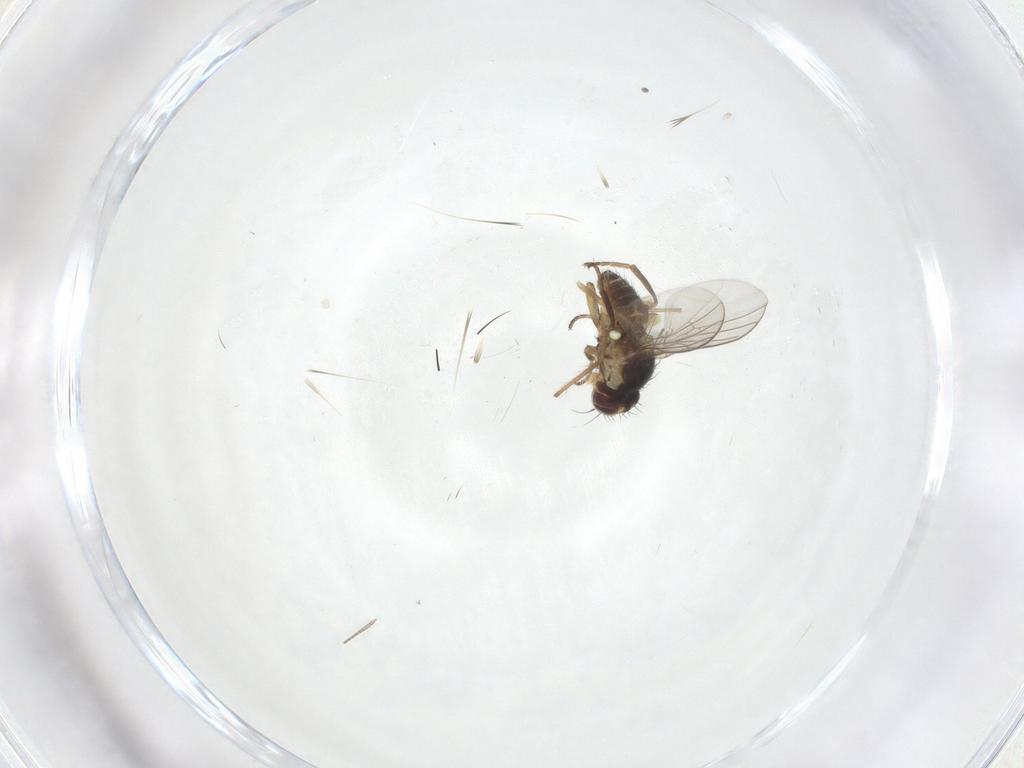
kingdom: Animalia
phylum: Arthropoda
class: Insecta
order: Diptera
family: Agromyzidae
